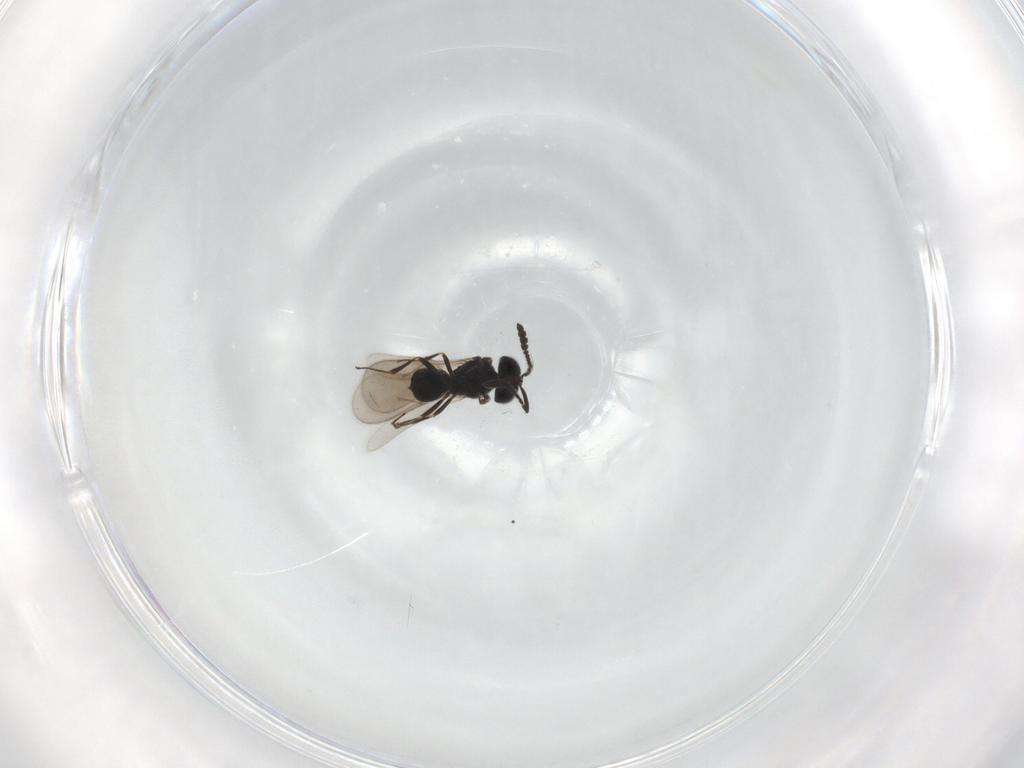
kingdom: Animalia
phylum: Arthropoda
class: Insecta
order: Hymenoptera
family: Scelionidae
